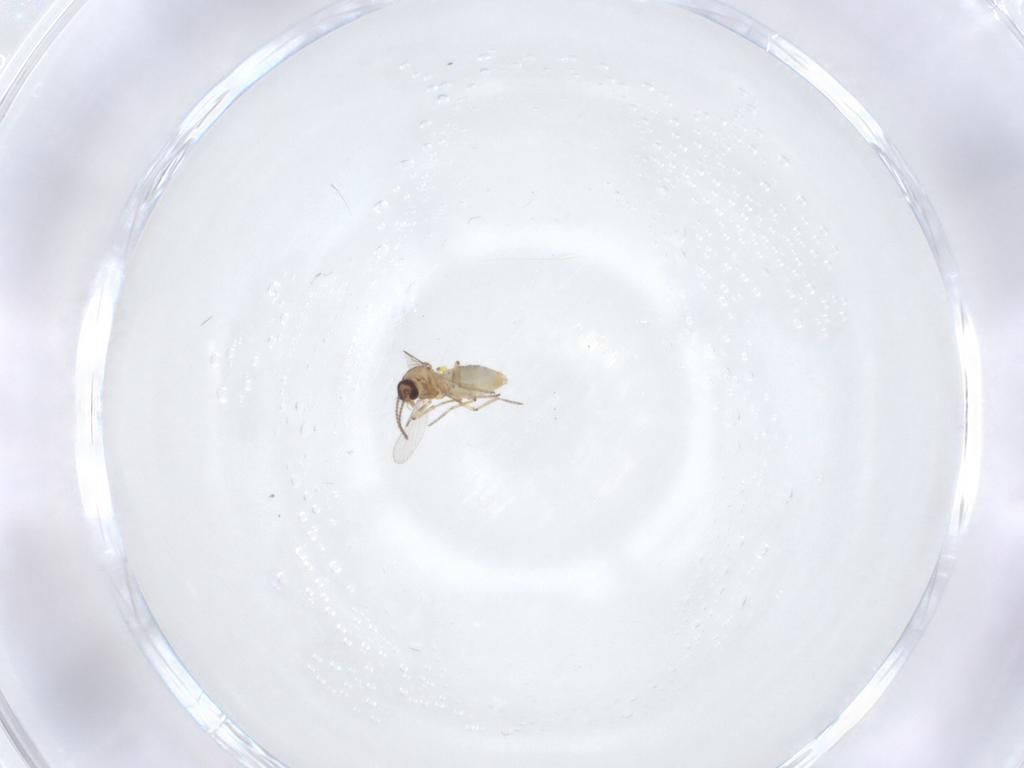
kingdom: Animalia
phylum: Arthropoda
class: Insecta
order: Diptera
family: Ceratopogonidae
